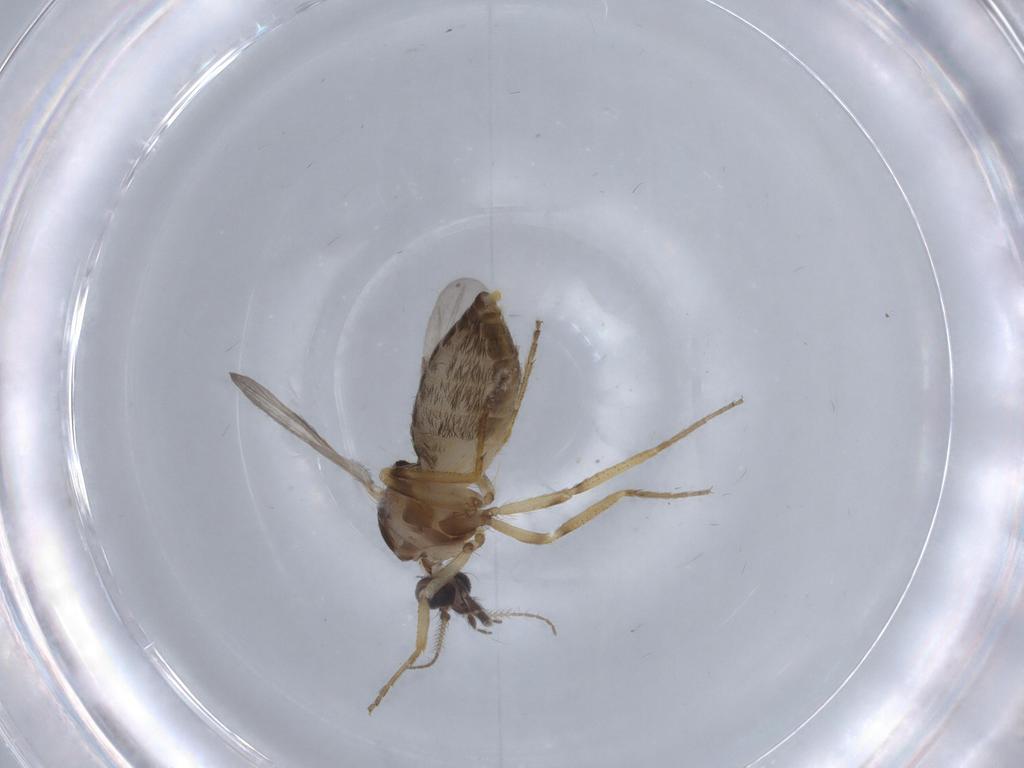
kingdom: Animalia
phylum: Arthropoda
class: Insecta
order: Diptera
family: Ceratopogonidae
